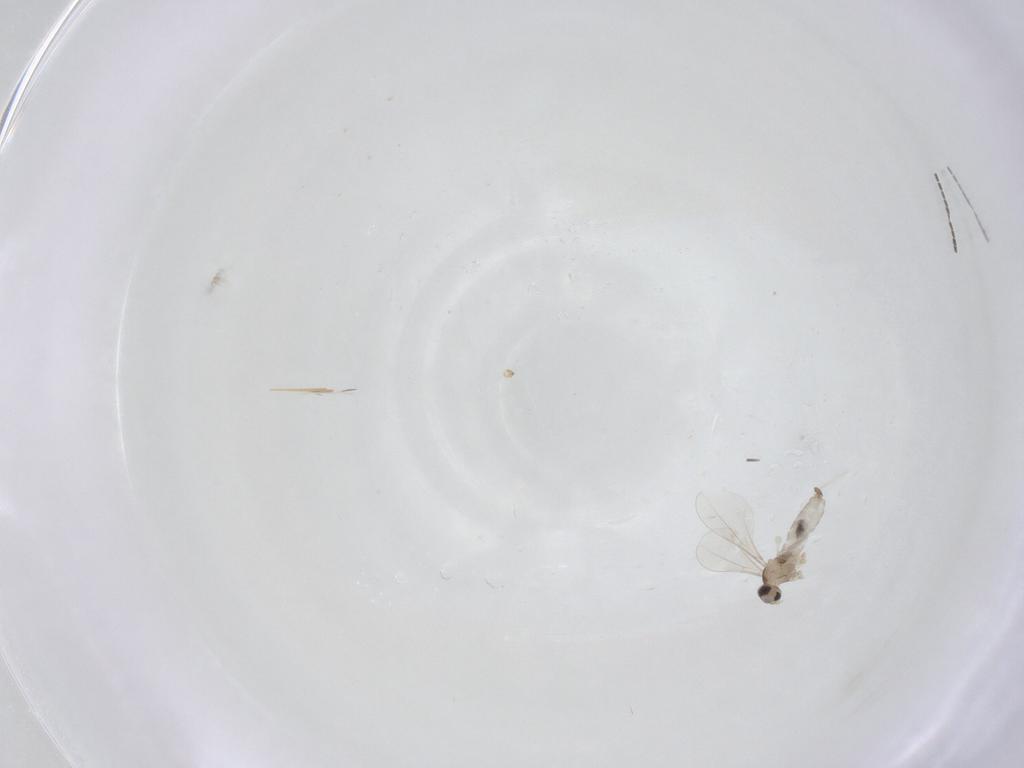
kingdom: Animalia
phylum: Arthropoda
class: Insecta
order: Diptera
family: Cecidomyiidae
